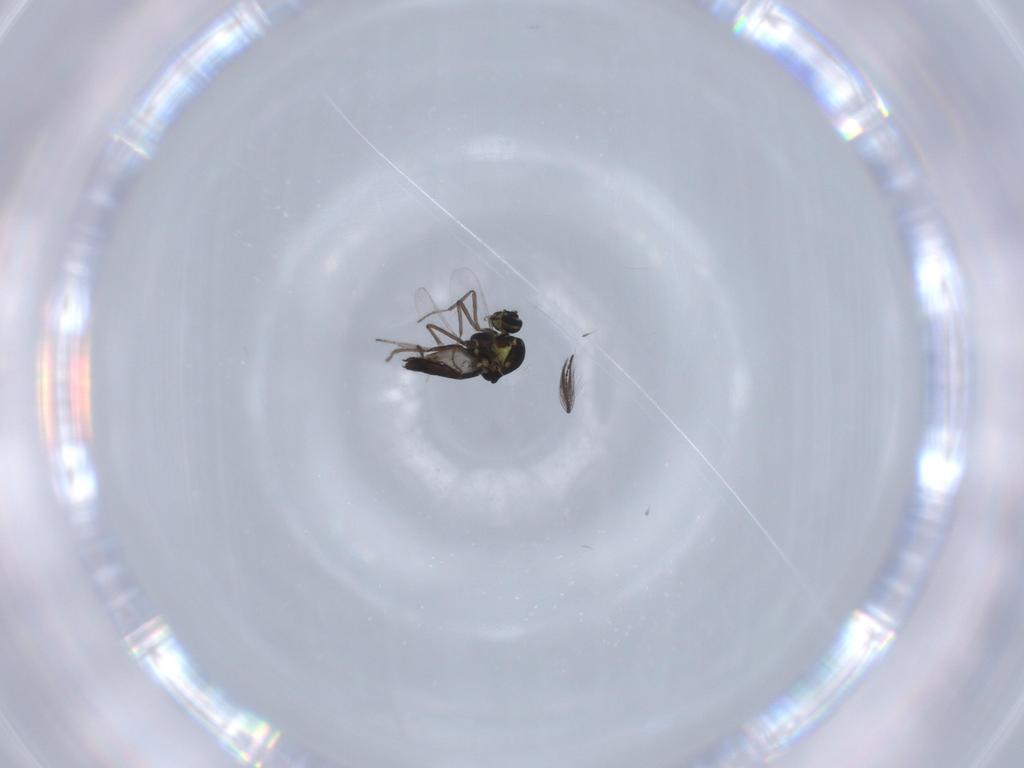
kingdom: Animalia
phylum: Arthropoda
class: Insecta
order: Diptera
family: Ceratopogonidae
